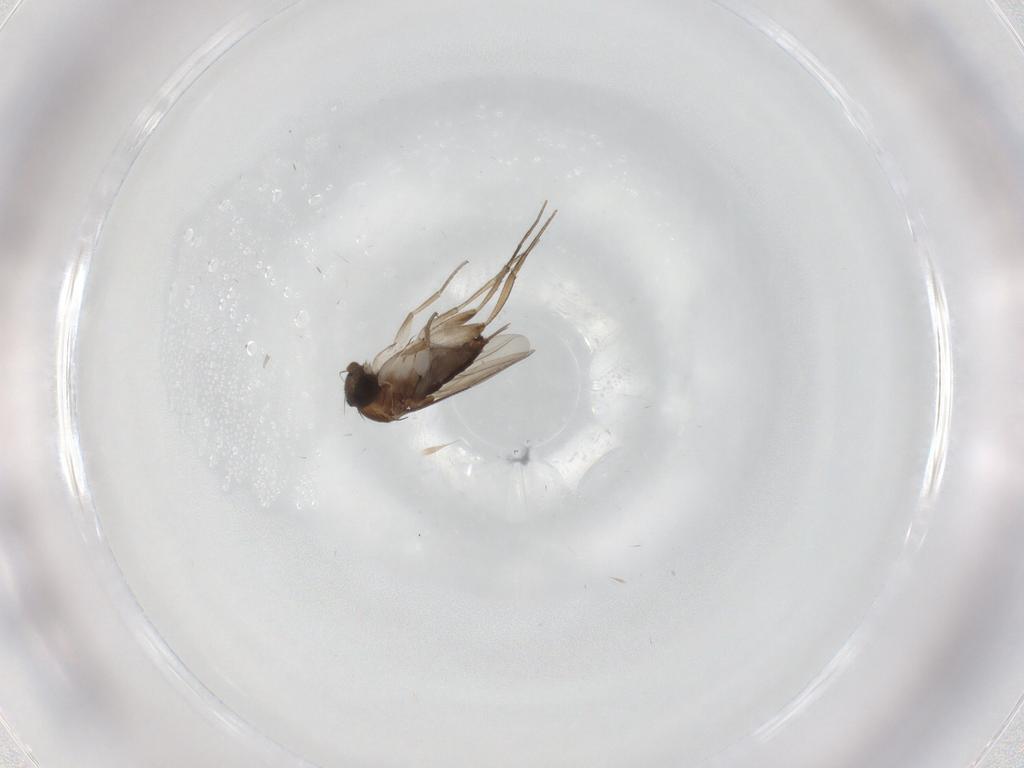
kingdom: Animalia
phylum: Arthropoda
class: Insecta
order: Diptera
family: Phoridae
